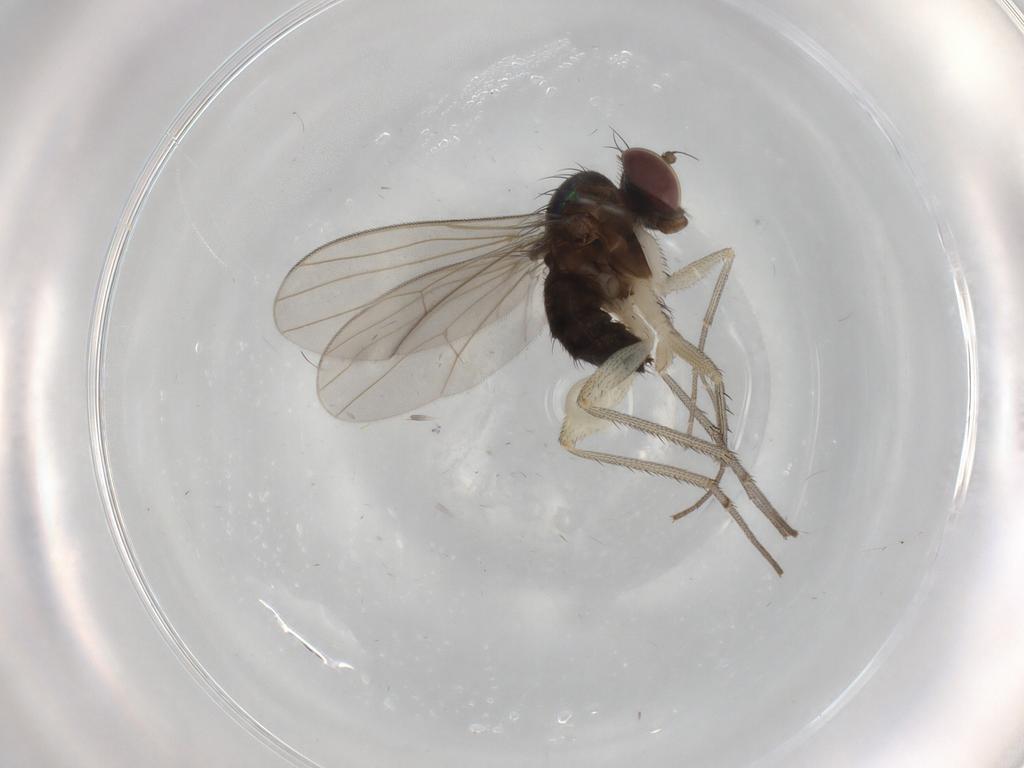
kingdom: Animalia
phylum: Arthropoda
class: Insecta
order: Diptera
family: Dolichopodidae
